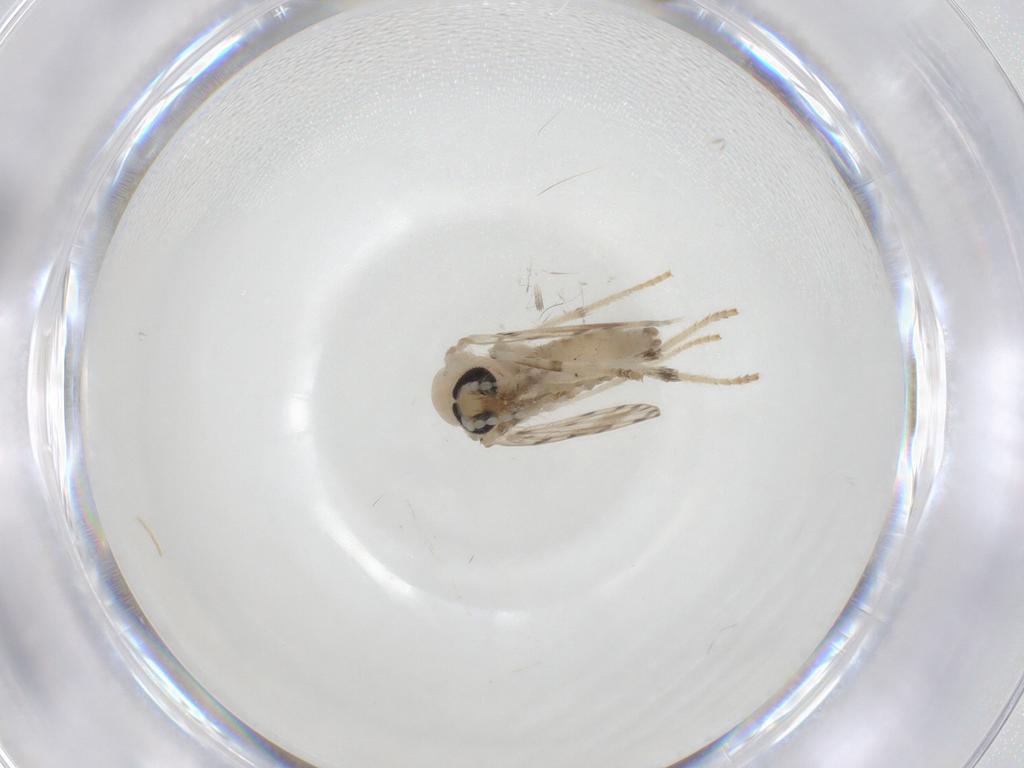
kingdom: Animalia
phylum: Arthropoda
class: Insecta
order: Diptera
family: Psychodidae
